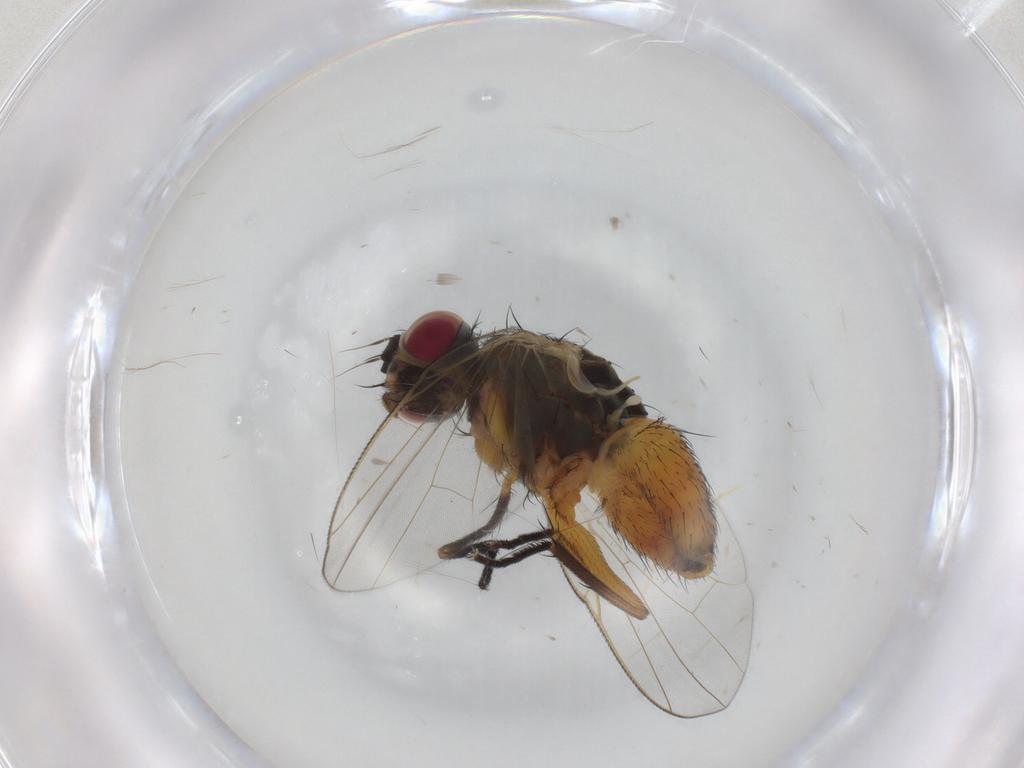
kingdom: Animalia
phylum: Arthropoda
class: Insecta
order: Diptera
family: Muscidae
